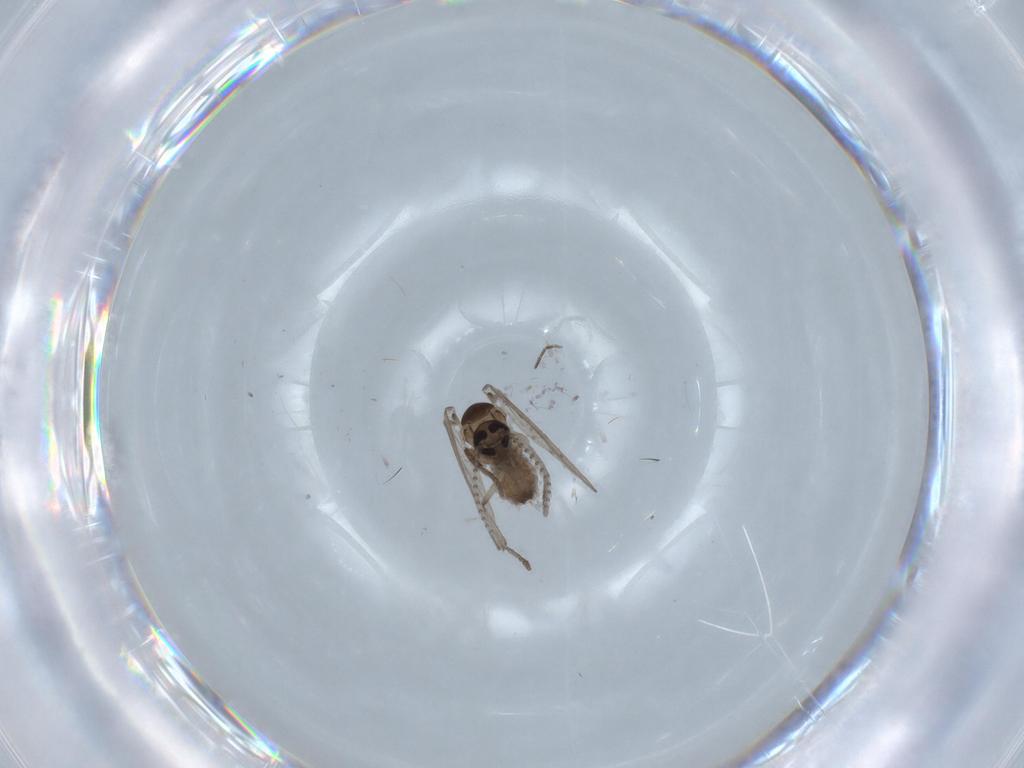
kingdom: Animalia
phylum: Arthropoda
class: Insecta
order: Diptera
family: Psychodidae
